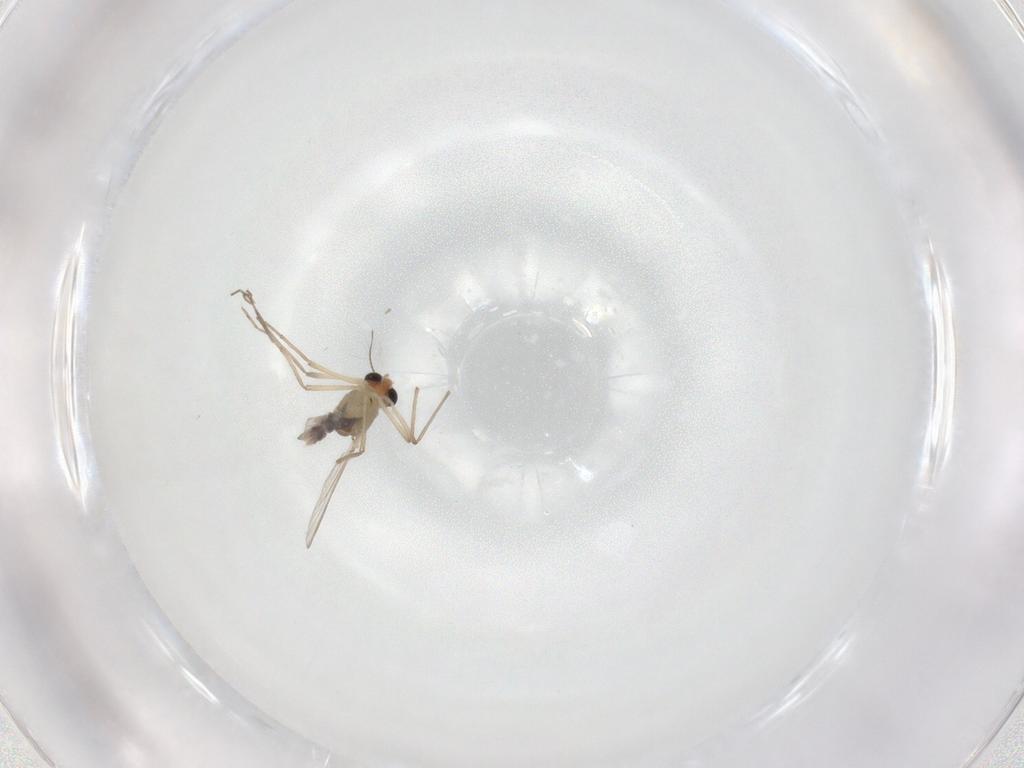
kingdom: Animalia
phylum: Arthropoda
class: Insecta
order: Diptera
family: Chironomidae
